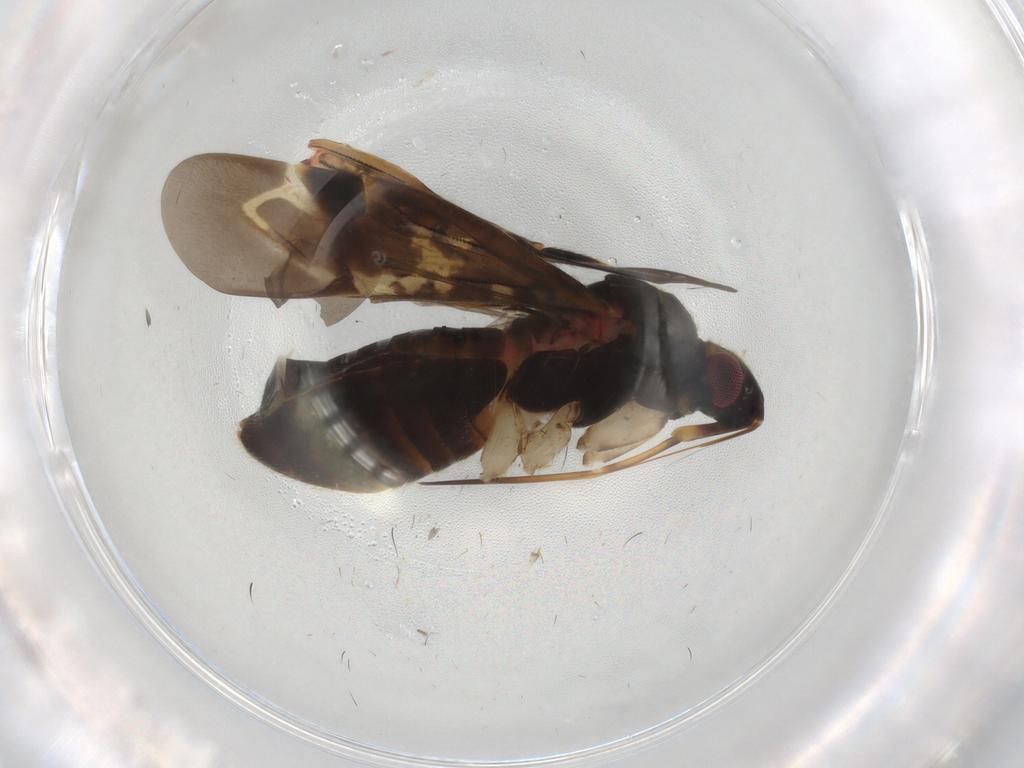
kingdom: Animalia
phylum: Arthropoda
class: Insecta
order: Hemiptera
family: Miridae
